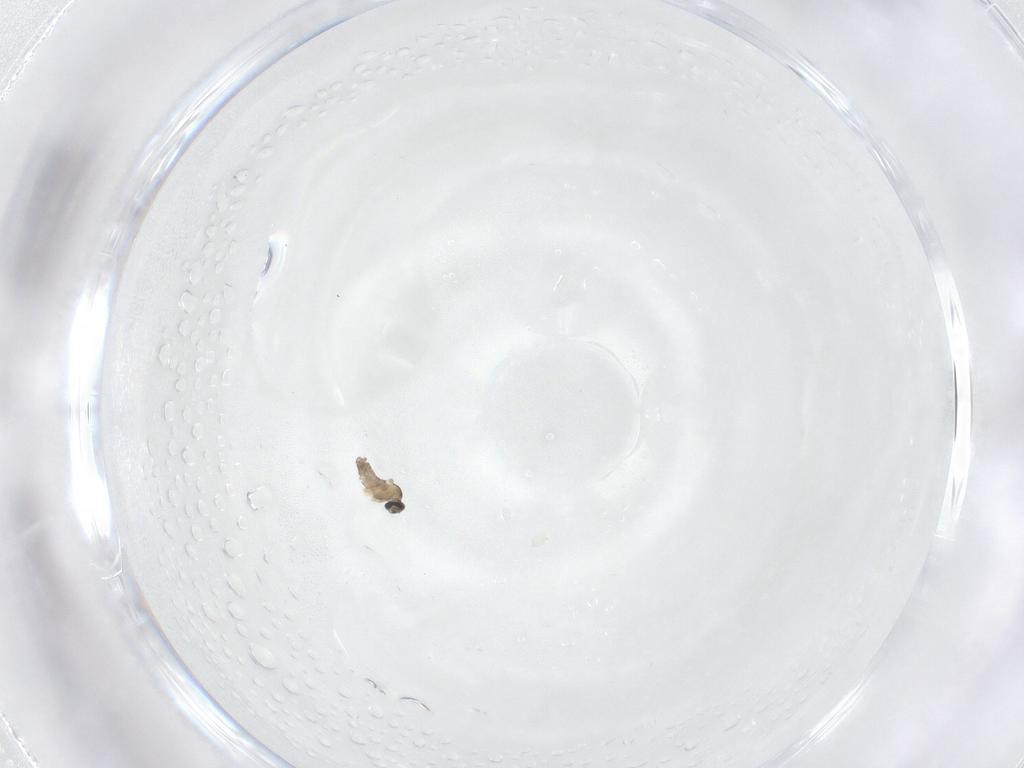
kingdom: Animalia
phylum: Arthropoda
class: Insecta
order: Diptera
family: Cecidomyiidae
